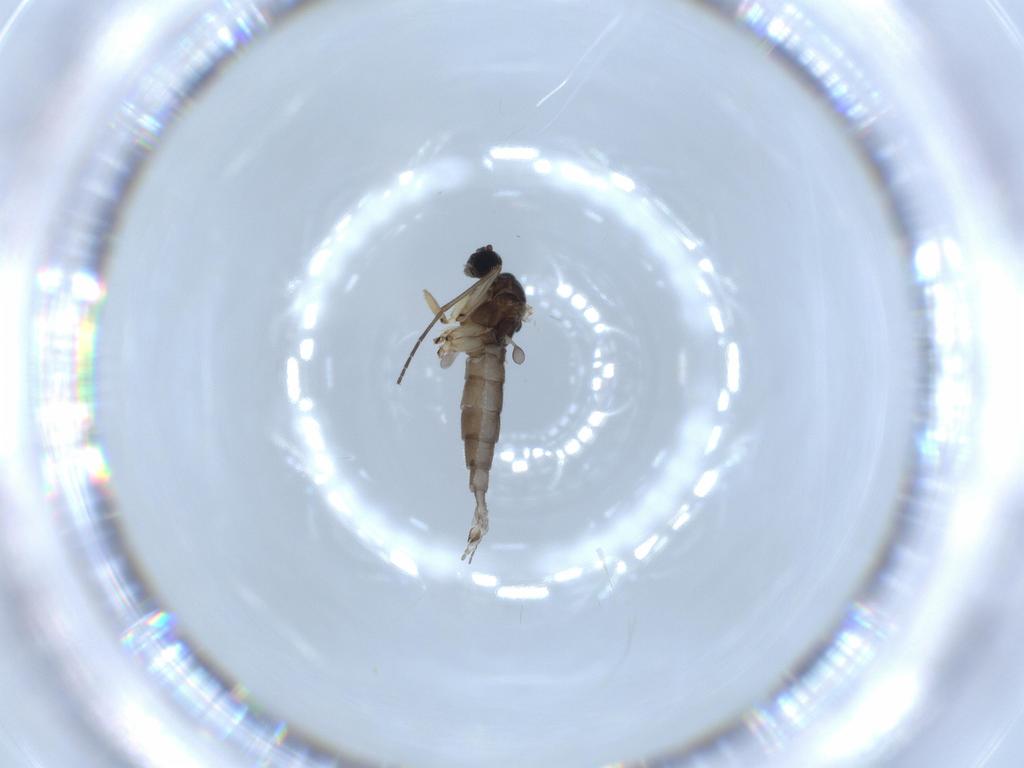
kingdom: Animalia
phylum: Arthropoda
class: Insecta
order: Diptera
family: Sciaridae
